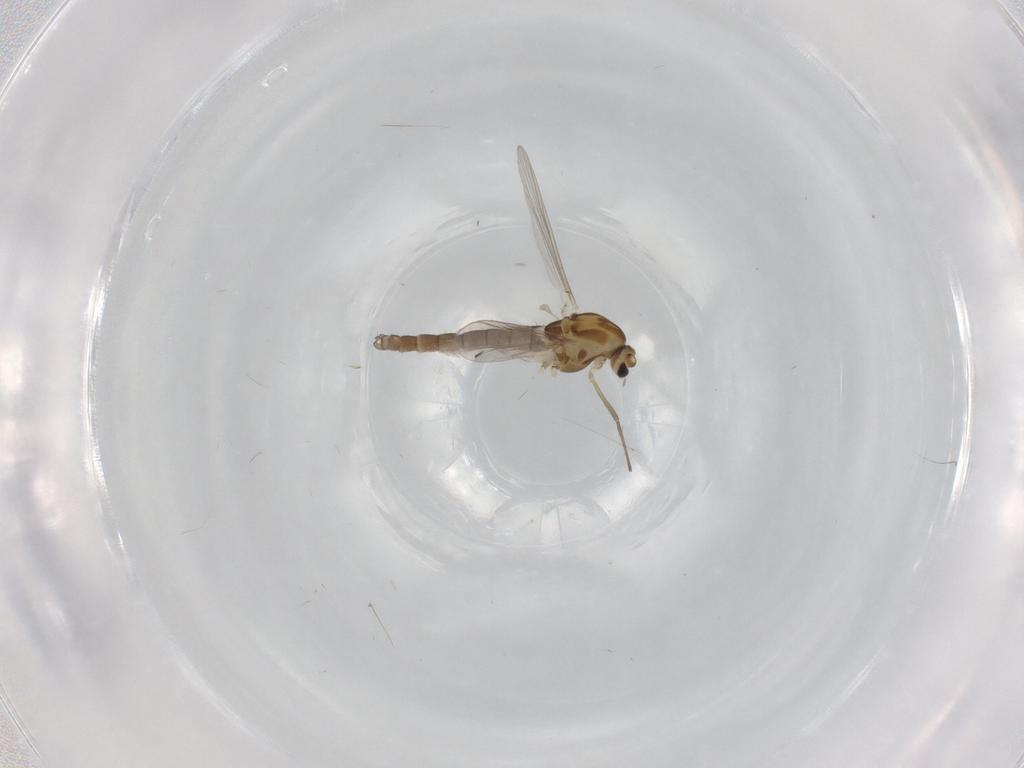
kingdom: Animalia
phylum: Arthropoda
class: Insecta
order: Diptera
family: Chironomidae
